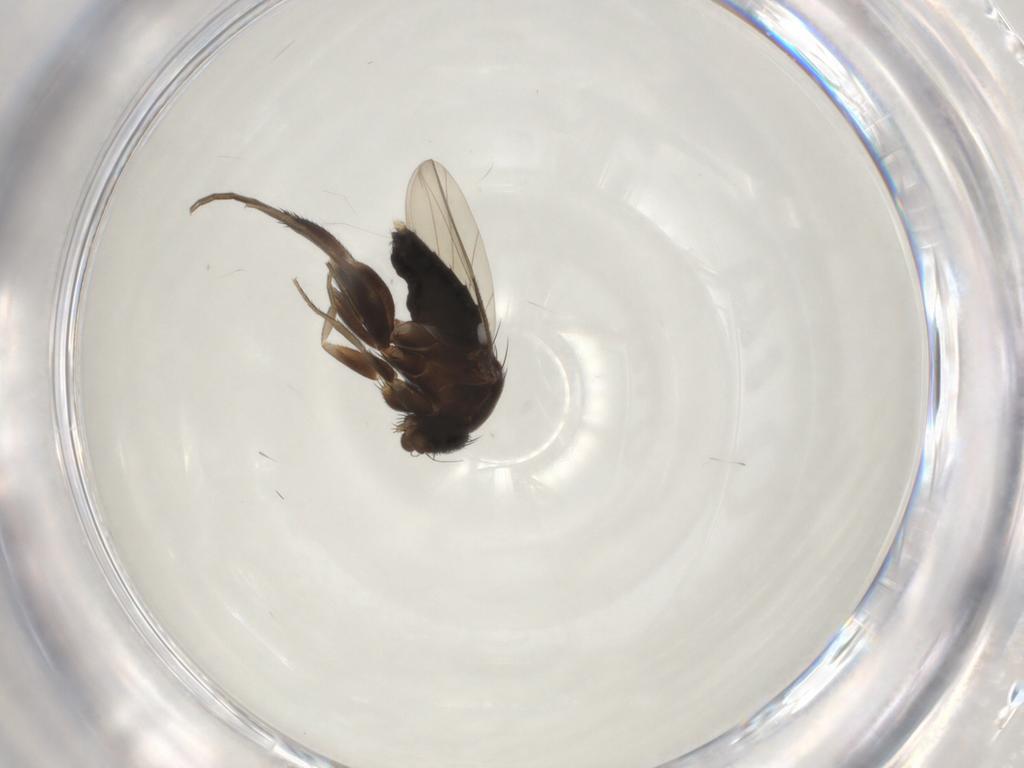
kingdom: Animalia
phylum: Arthropoda
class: Insecta
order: Diptera
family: Phoridae
